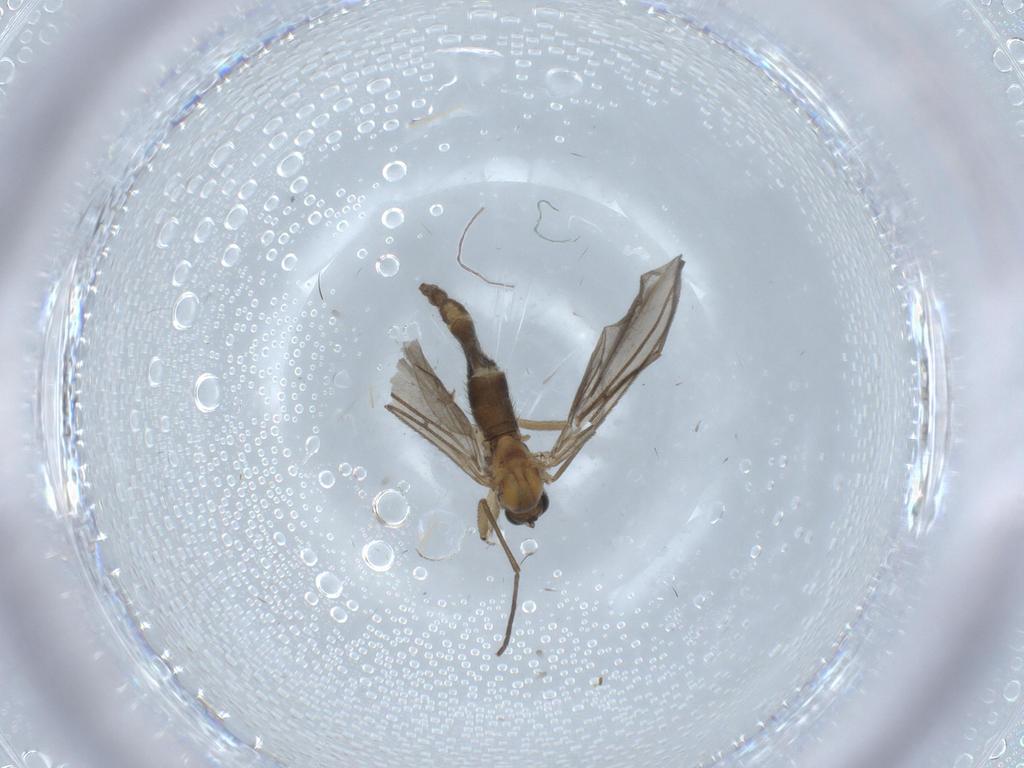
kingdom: Animalia
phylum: Arthropoda
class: Insecta
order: Diptera
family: Sciaridae
